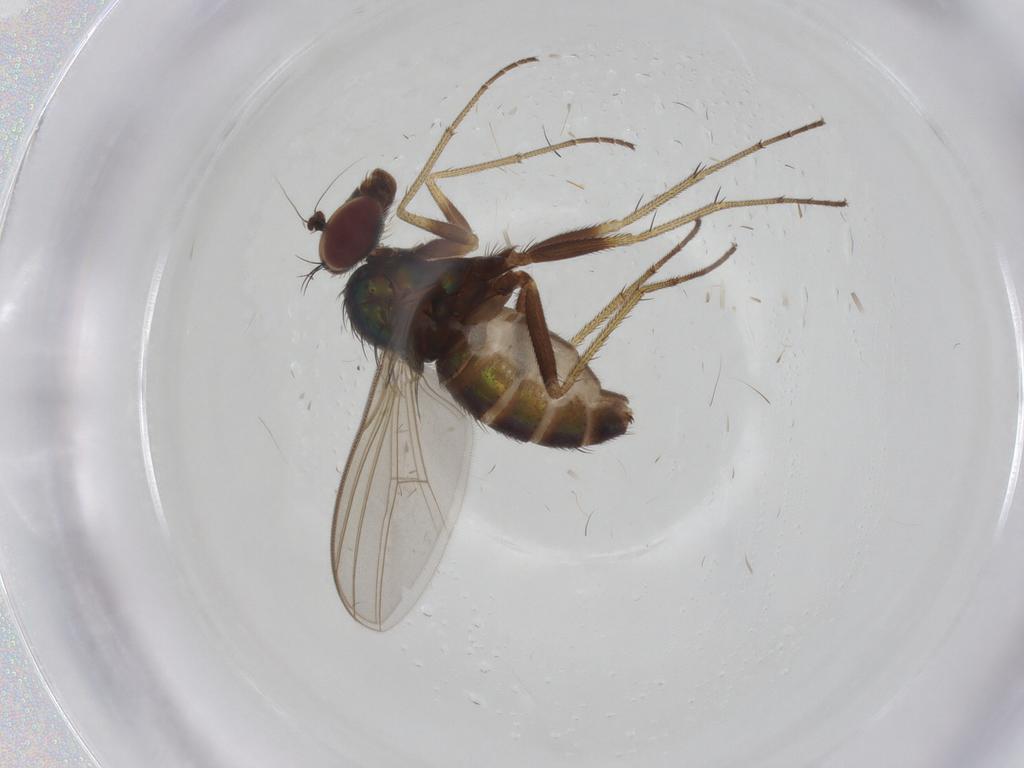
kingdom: Animalia
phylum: Arthropoda
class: Insecta
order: Diptera
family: Dolichopodidae
